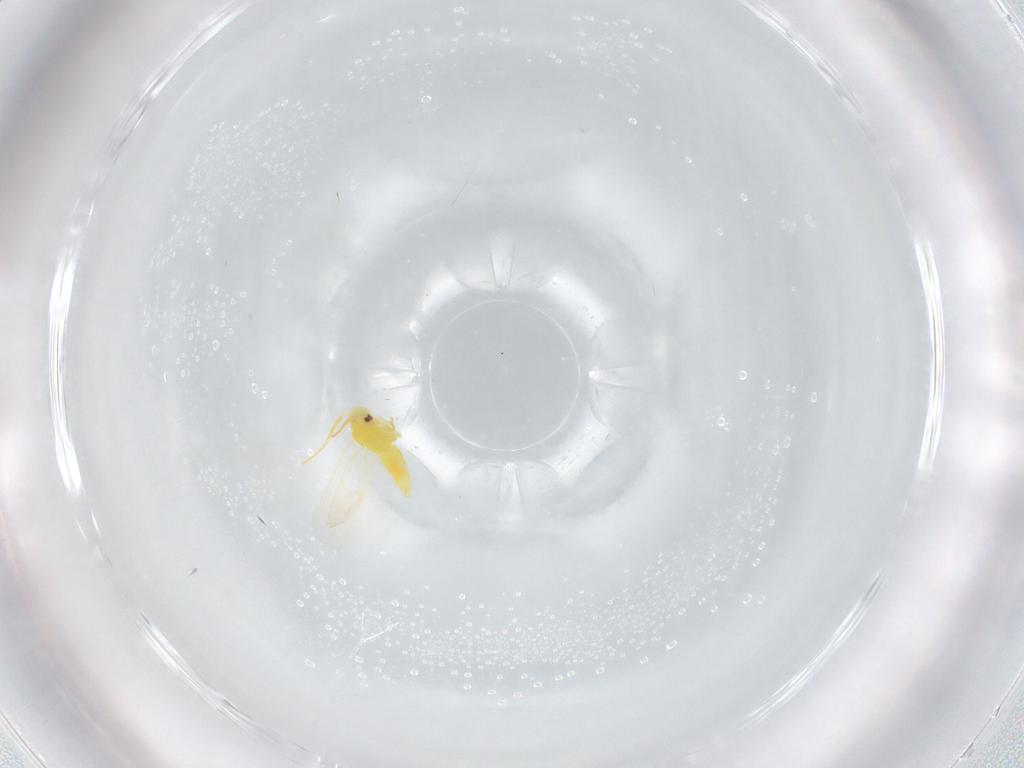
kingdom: Animalia
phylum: Arthropoda
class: Insecta
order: Hemiptera
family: Aleyrodidae
